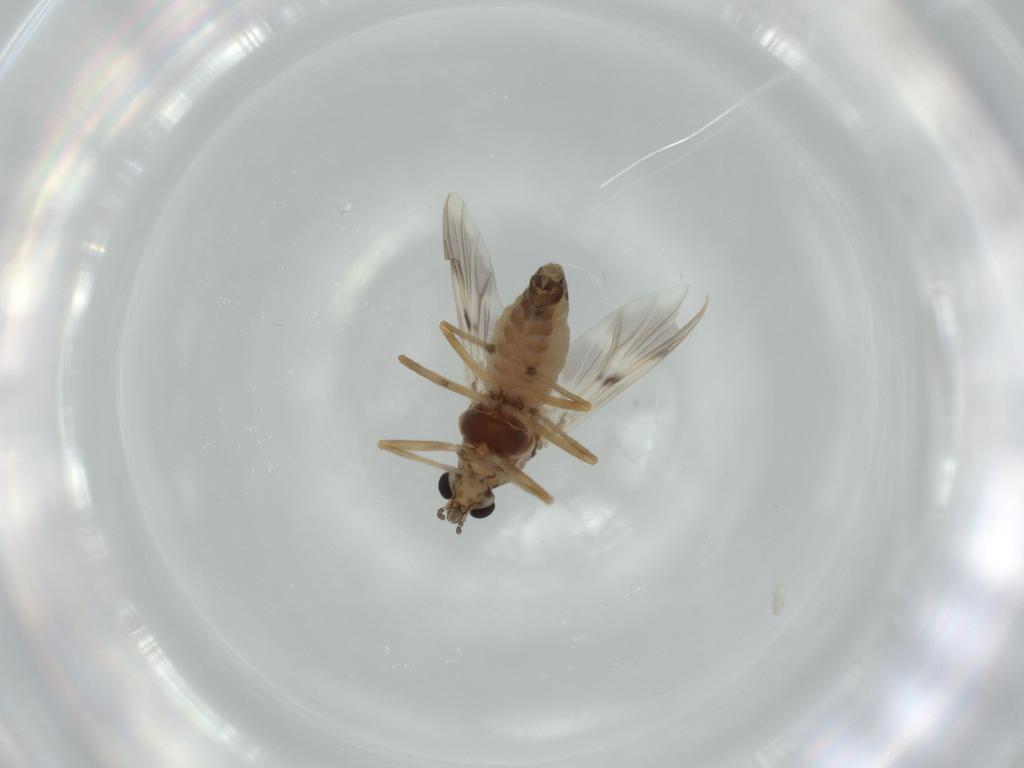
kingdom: Animalia
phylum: Arthropoda
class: Insecta
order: Diptera
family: Chironomidae
